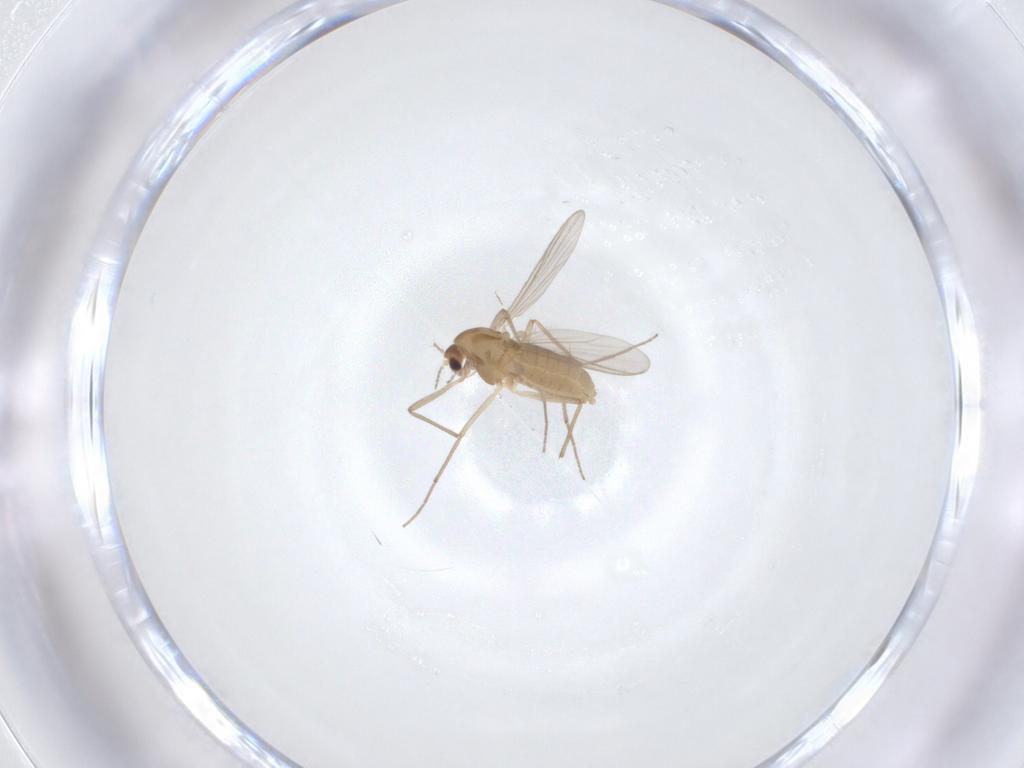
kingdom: Animalia
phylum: Arthropoda
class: Insecta
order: Diptera
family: Chironomidae
